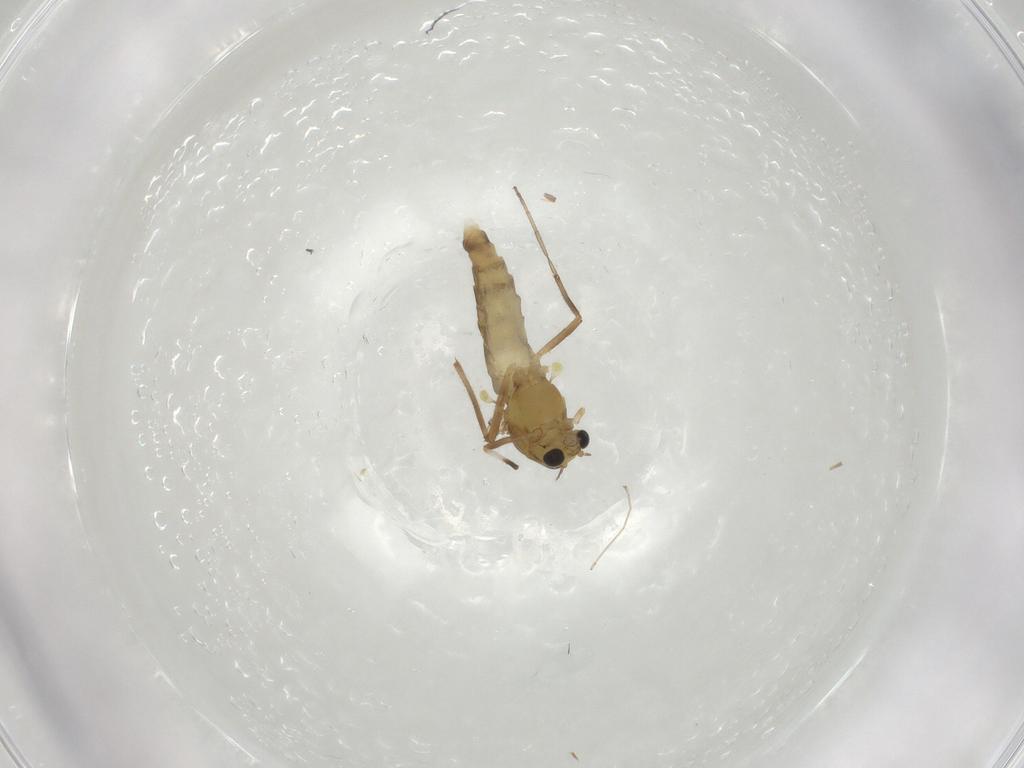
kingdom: Animalia
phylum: Arthropoda
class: Insecta
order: Diptera
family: Chironomidae
